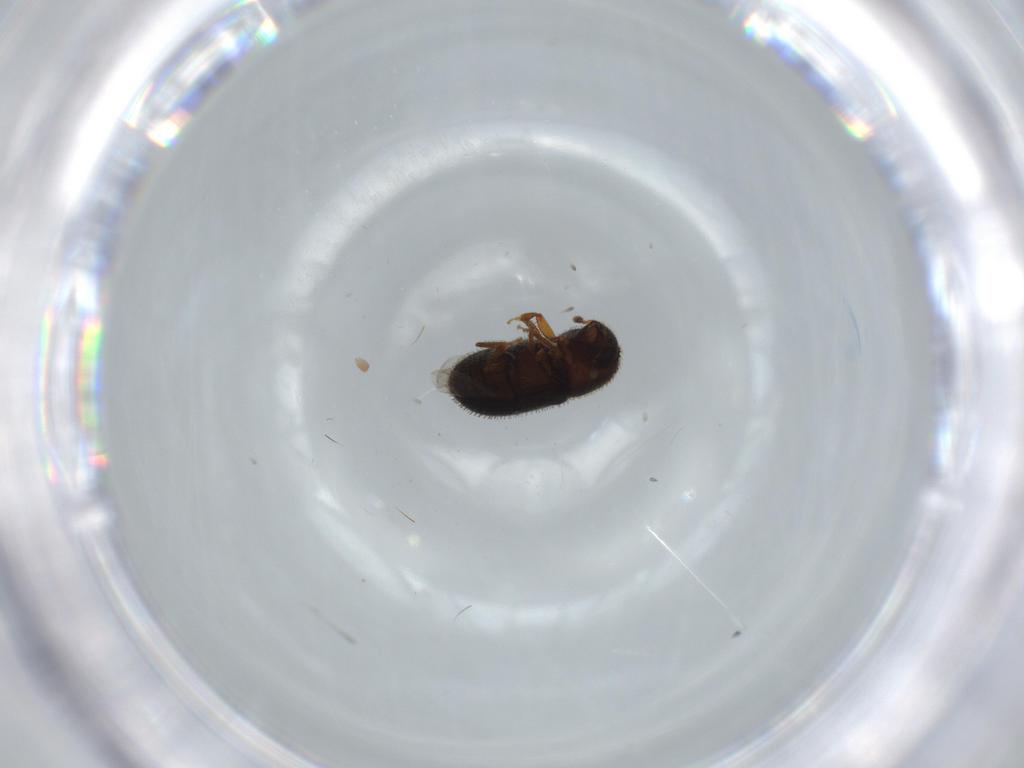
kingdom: Animalia
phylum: Arthropoda
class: Insecta
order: Coleoptera
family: Curculionidae
